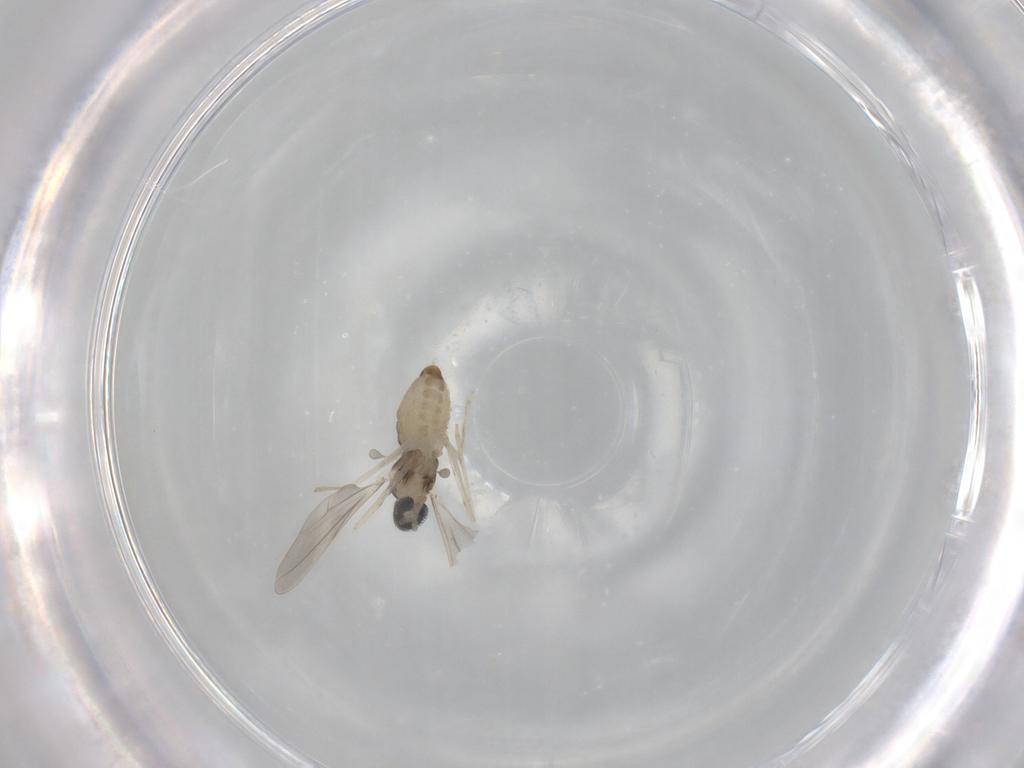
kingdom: Animalia
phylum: Arthropoda
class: Insecta
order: Diptera
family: Cecidomyiidae
